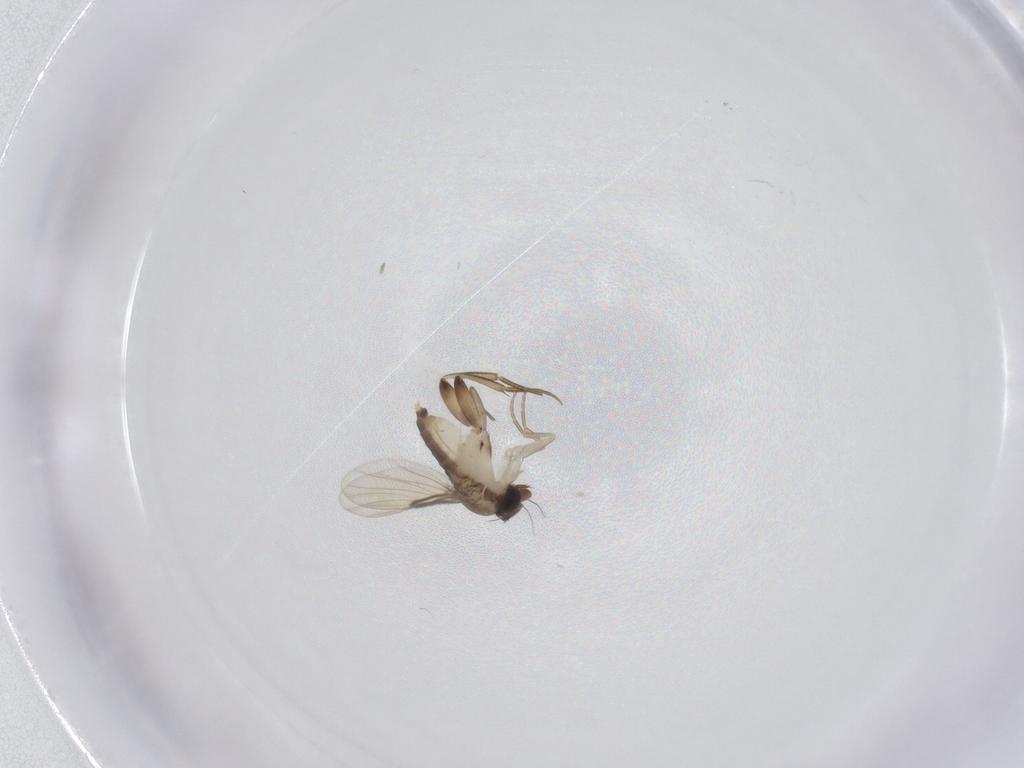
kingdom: Animalia
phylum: Arthropoda
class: Insecta
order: Diptera
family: Phoridae
